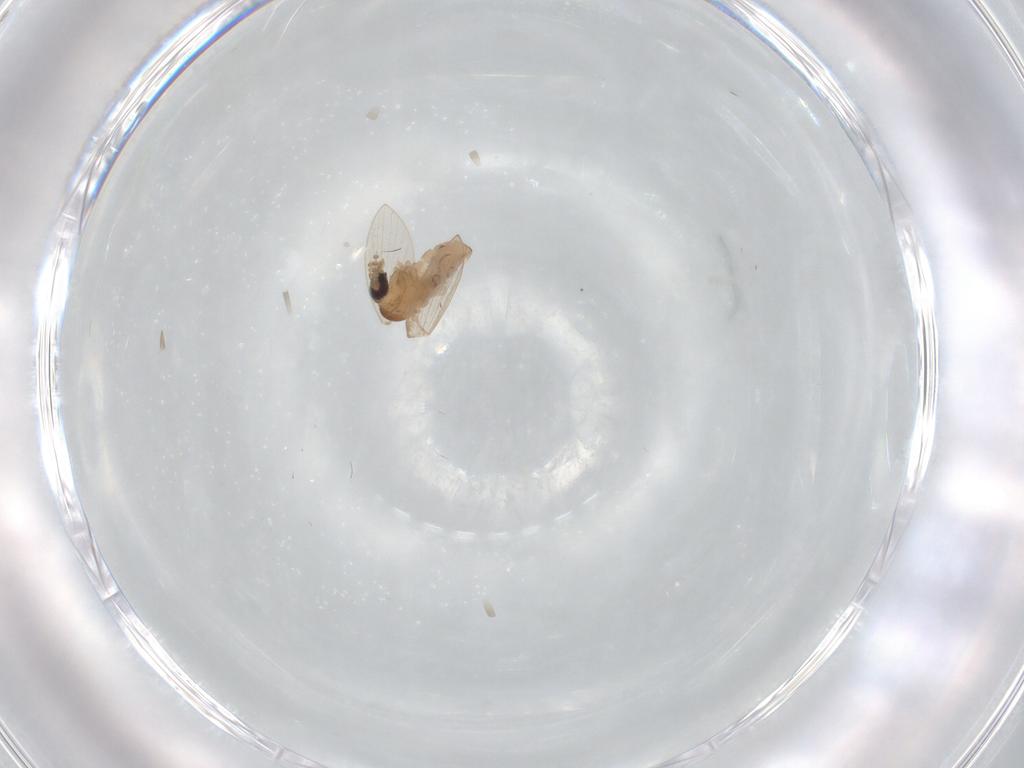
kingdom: Animalia
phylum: Arthropoda
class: Insecta
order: Diptera
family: Psychodidae
